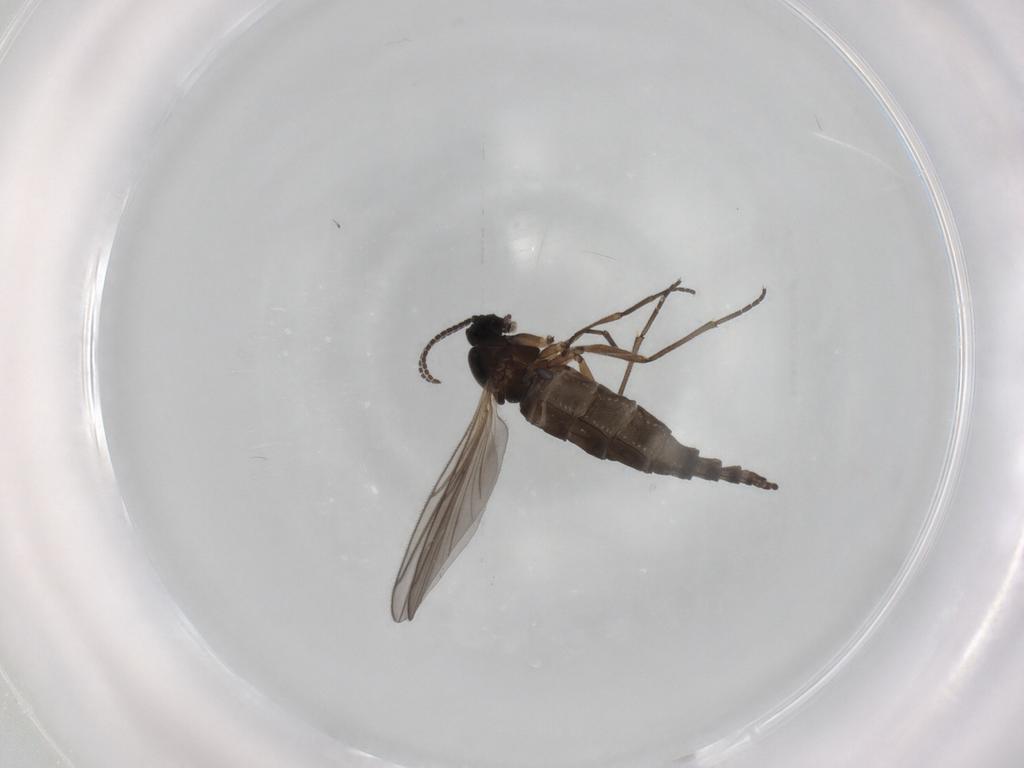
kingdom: Animalia
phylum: Arthropoda
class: Insecta
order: Diptera
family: Sciaridae
